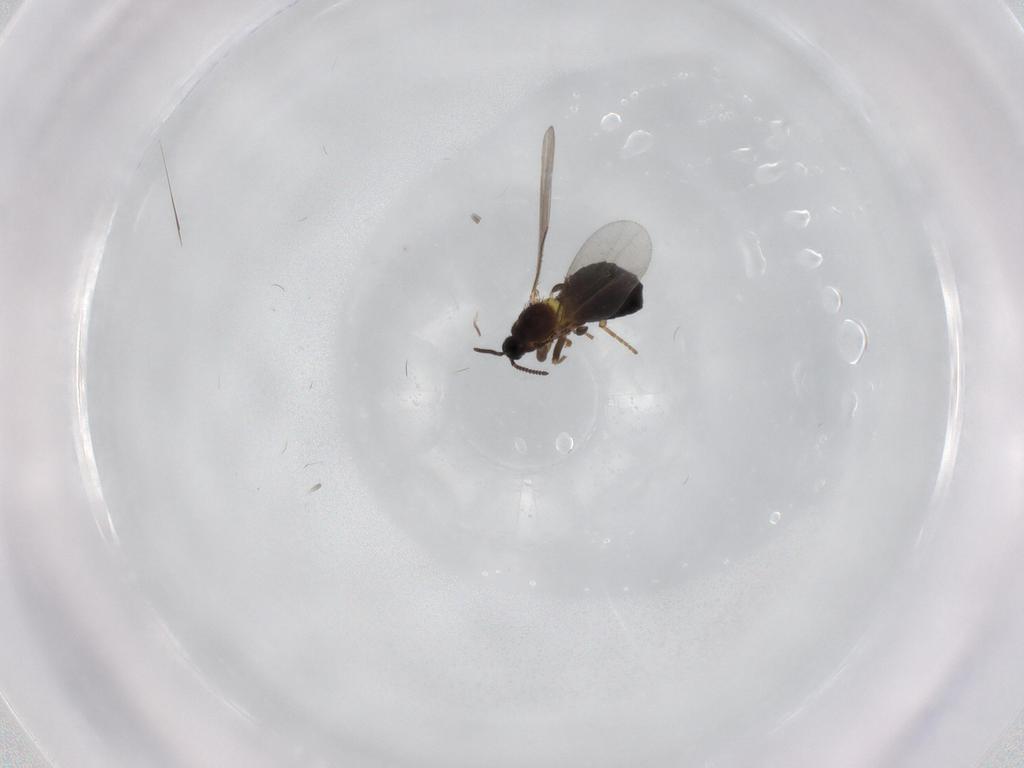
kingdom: Animalia
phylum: Arthropoda
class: Insecta
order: Diptera
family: Scatopsidae
